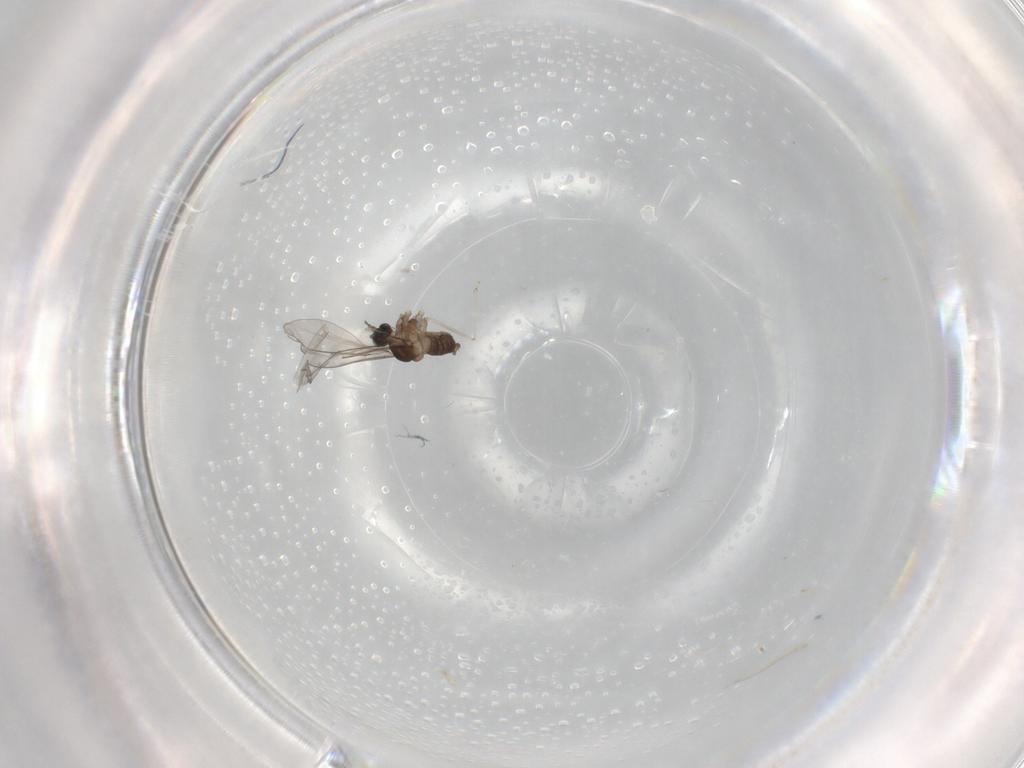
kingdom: Animalia
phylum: Arthropoda
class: Insecta
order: Diptera
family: Cecidomyiidae
